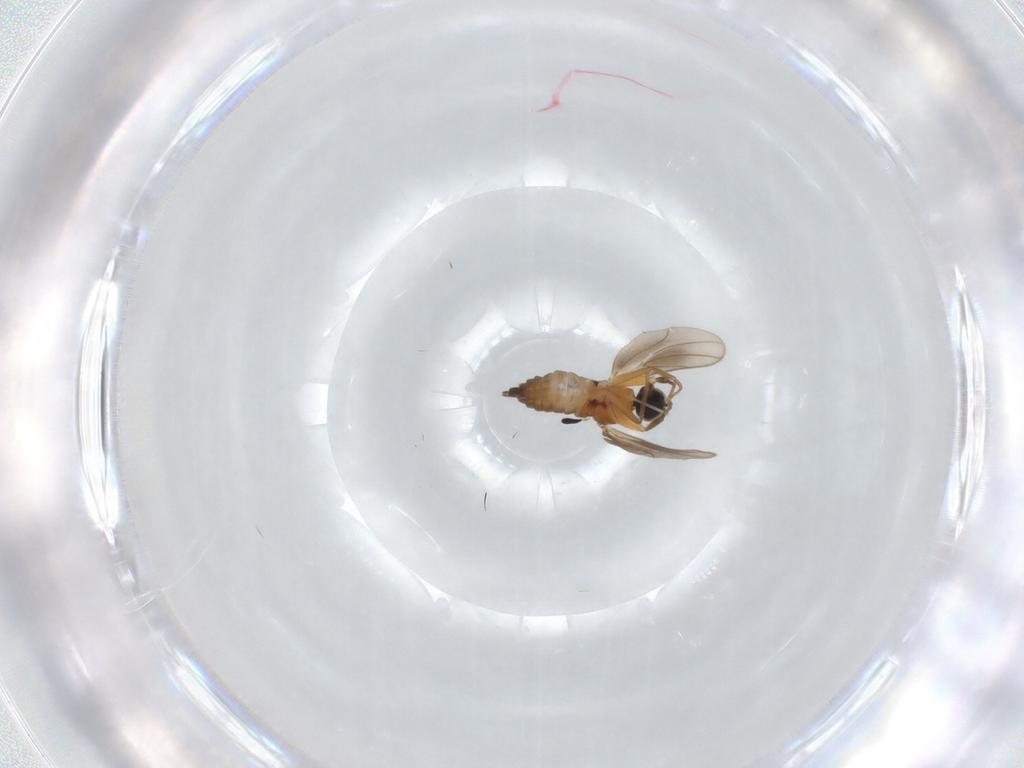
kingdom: Animalia
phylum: Arthropoda
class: Insecta
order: Diptera
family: Hybotidae
